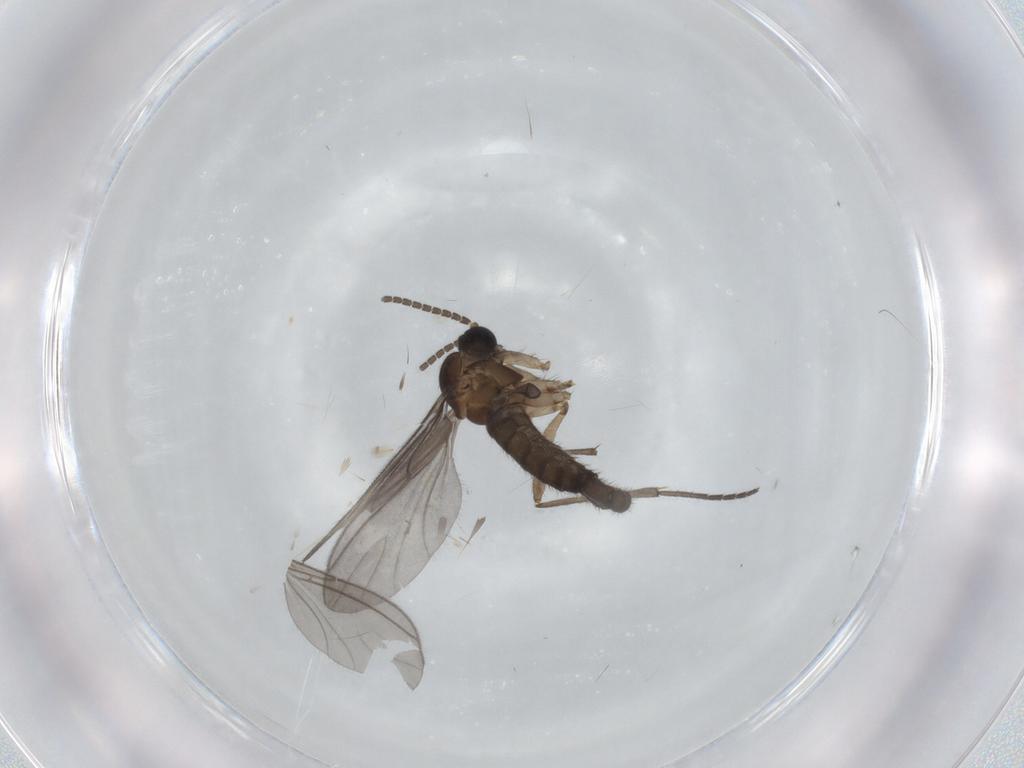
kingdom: Animalia
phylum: Arthropoda
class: Insecta
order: Diptera
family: Sciaridae
